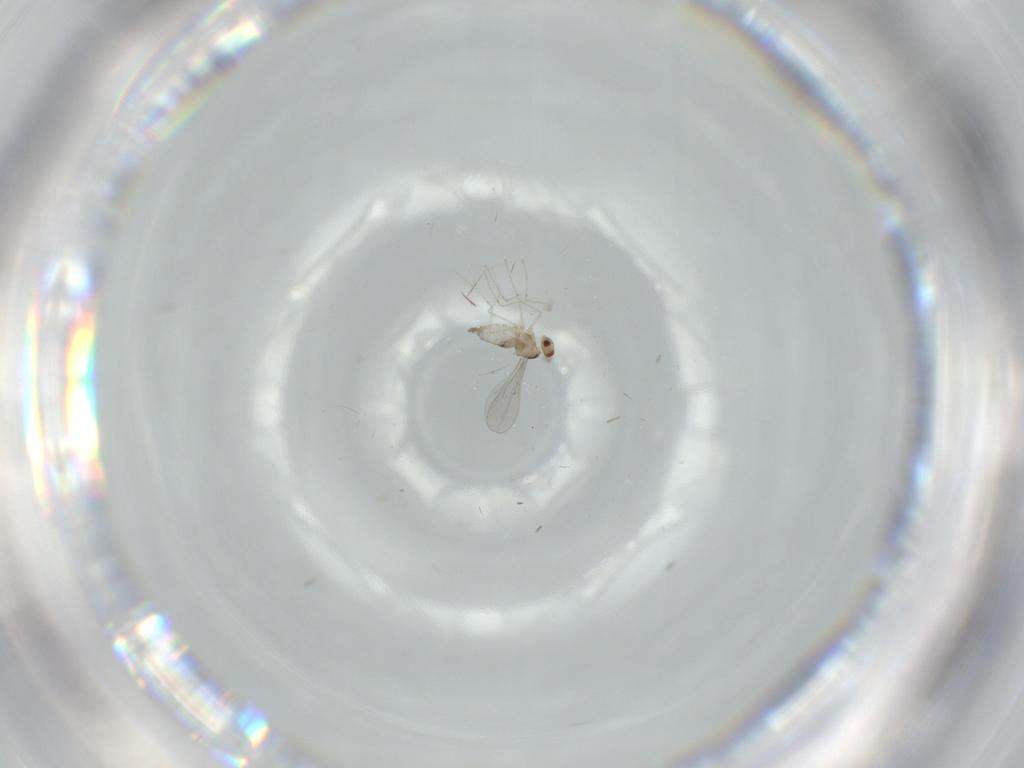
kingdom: Animalia
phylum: Arthropoda
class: Insecta
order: Diptera
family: Cecidomyiidae
